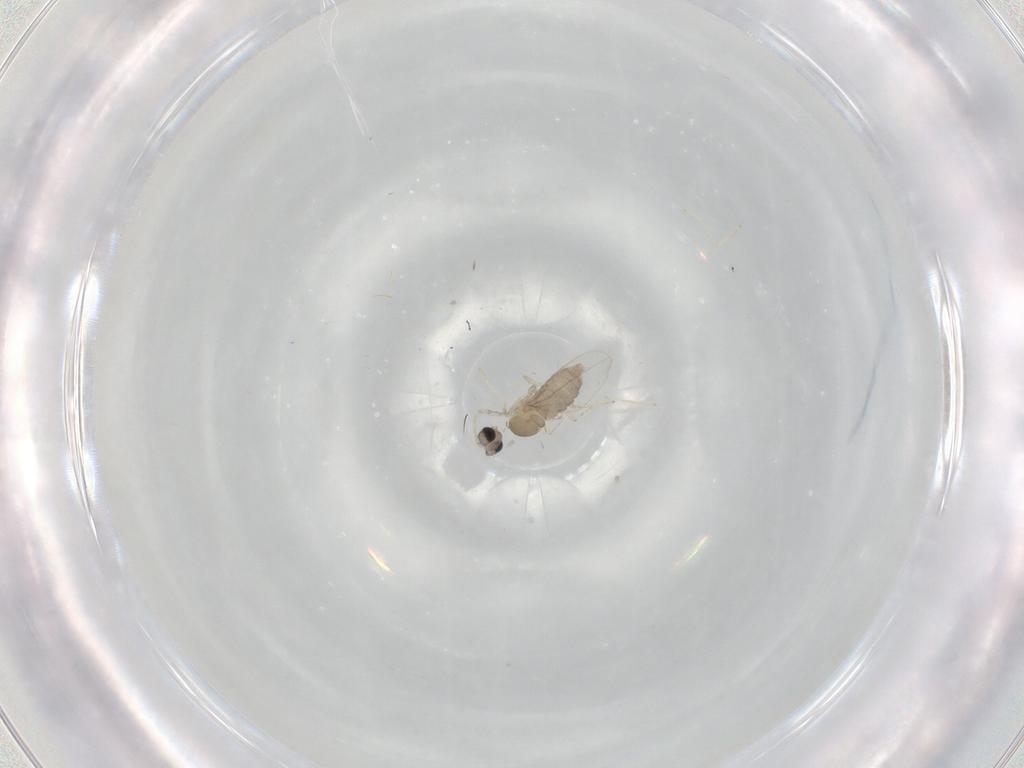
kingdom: Animalia
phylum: Arthropoda
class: Insecta
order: Diptera
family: Cecidomyiidae
